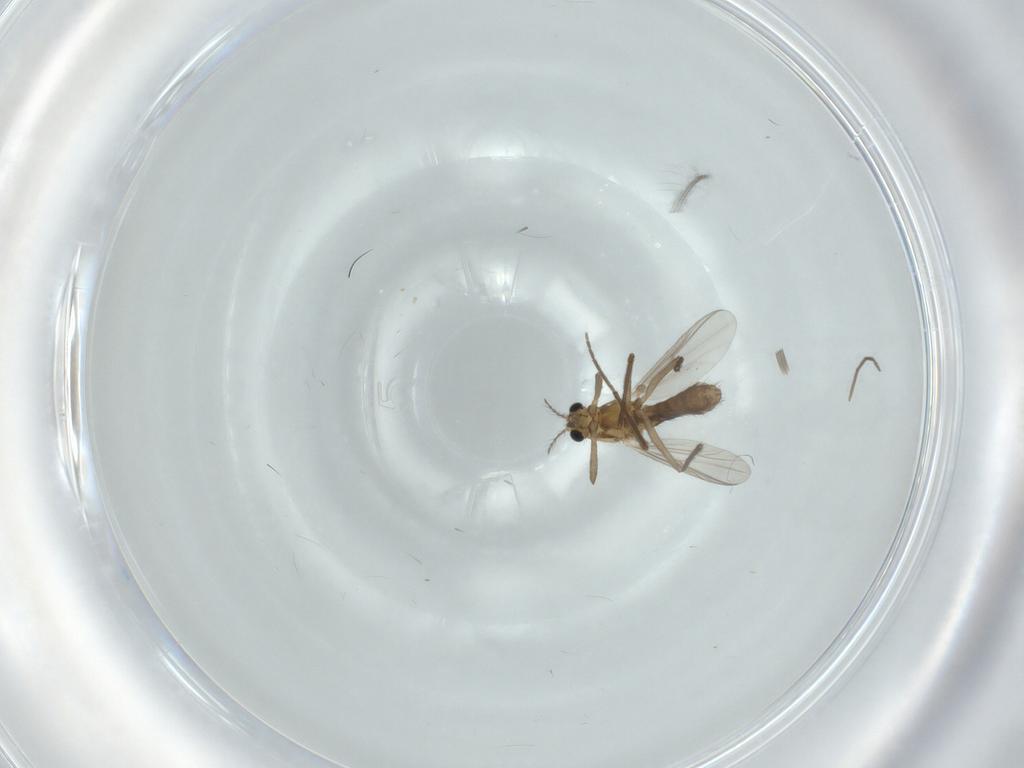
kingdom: Animalia
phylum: Arthropoda
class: Insecta
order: Diptera
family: Chironomidae
